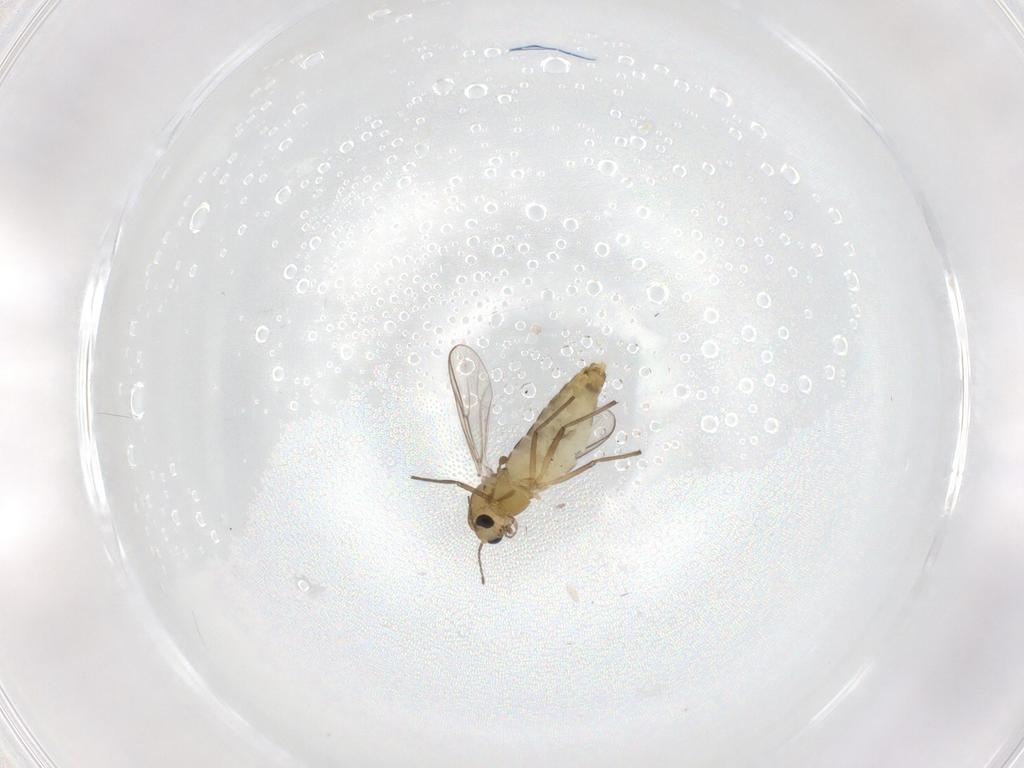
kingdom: Animalia
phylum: Arthropoda
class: Insecta
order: Diptera
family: Chironomidae
